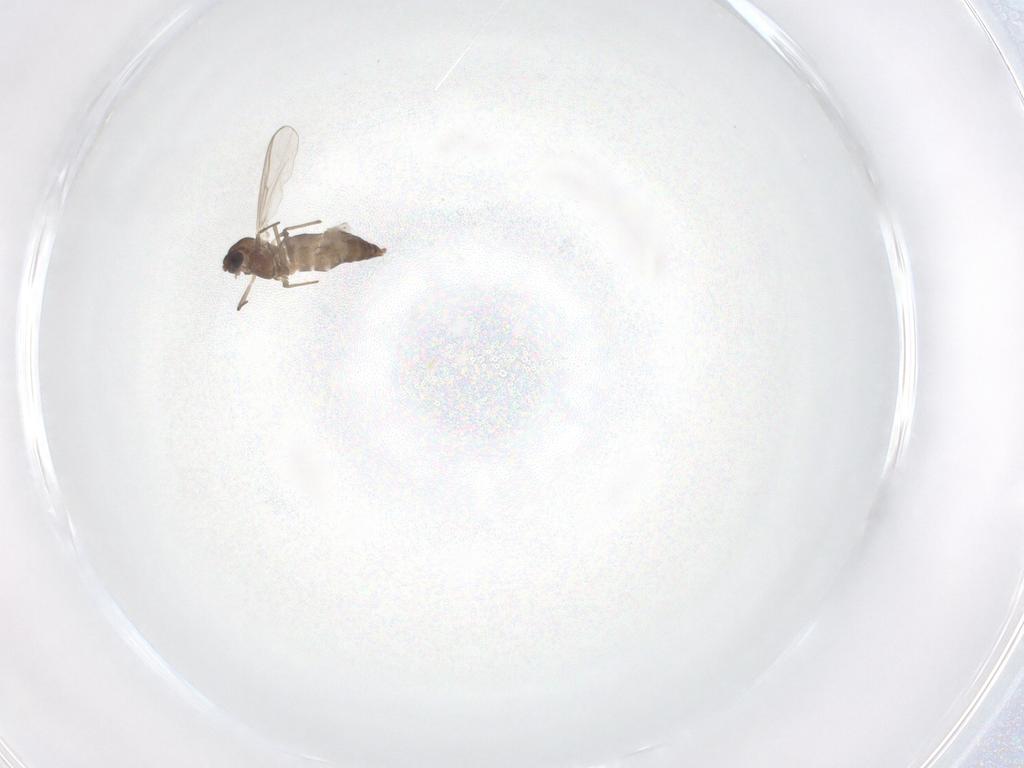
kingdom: Animalia
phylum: Arthropoda
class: Insecta
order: Diptera
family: Chironomidae
